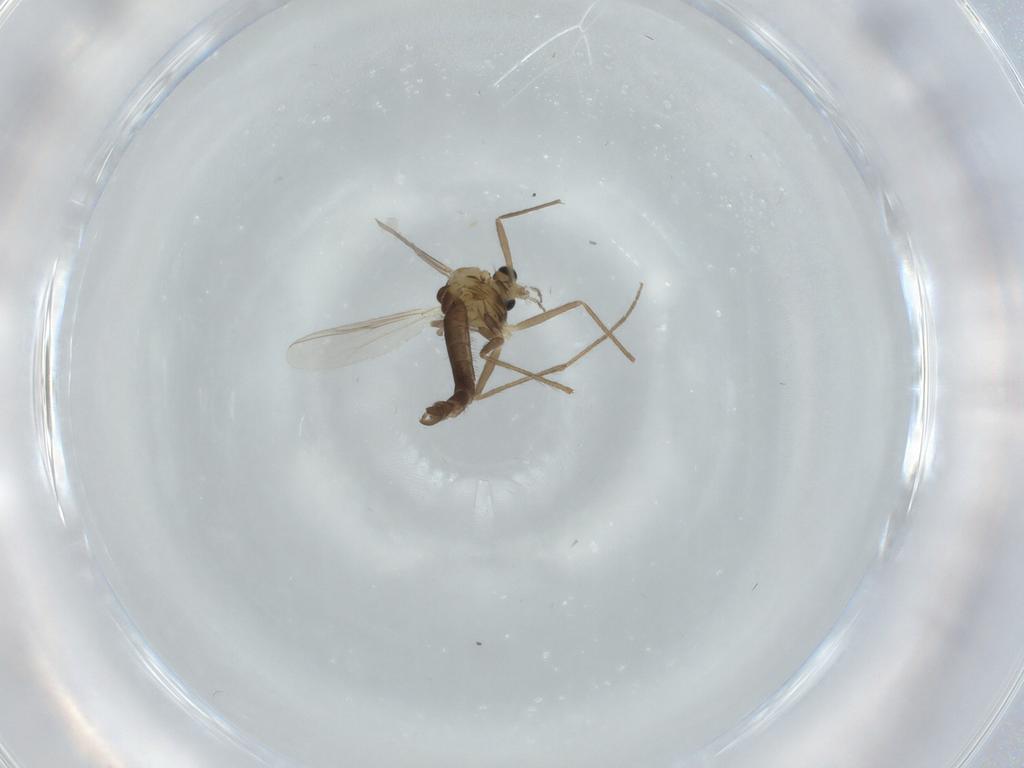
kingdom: Animalia
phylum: Arthropoda
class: Insecta
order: Diptera
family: Chironomidae
